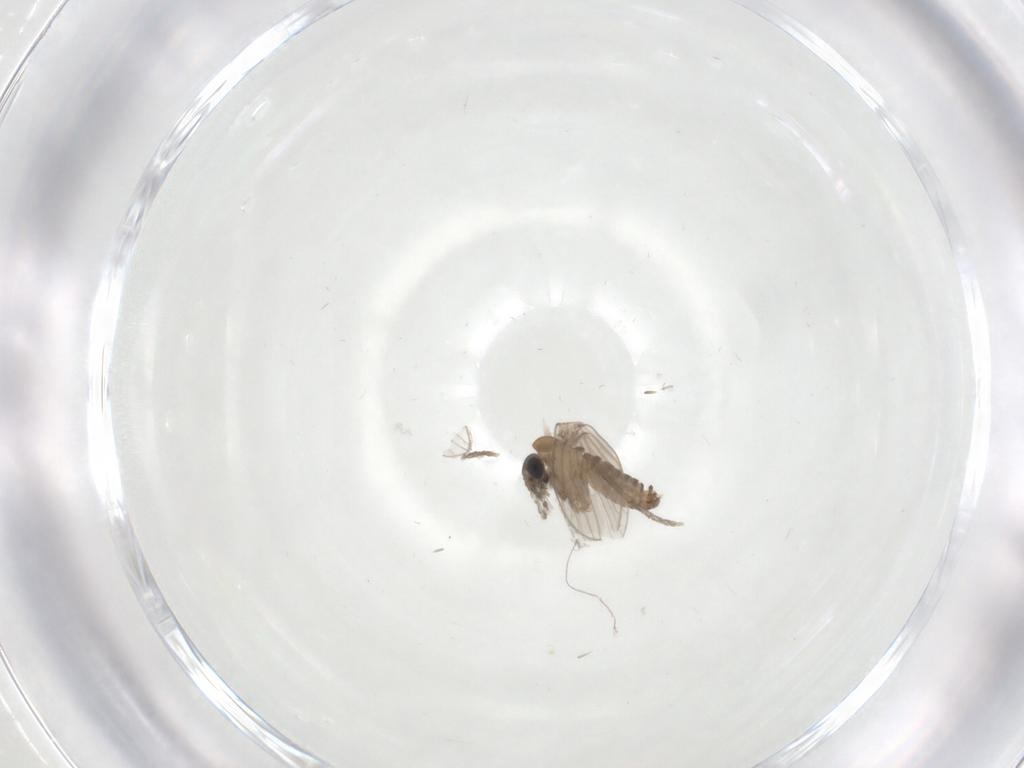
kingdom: Animalia
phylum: Arthropoda
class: Insecta
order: Diptera
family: Psychodidae
